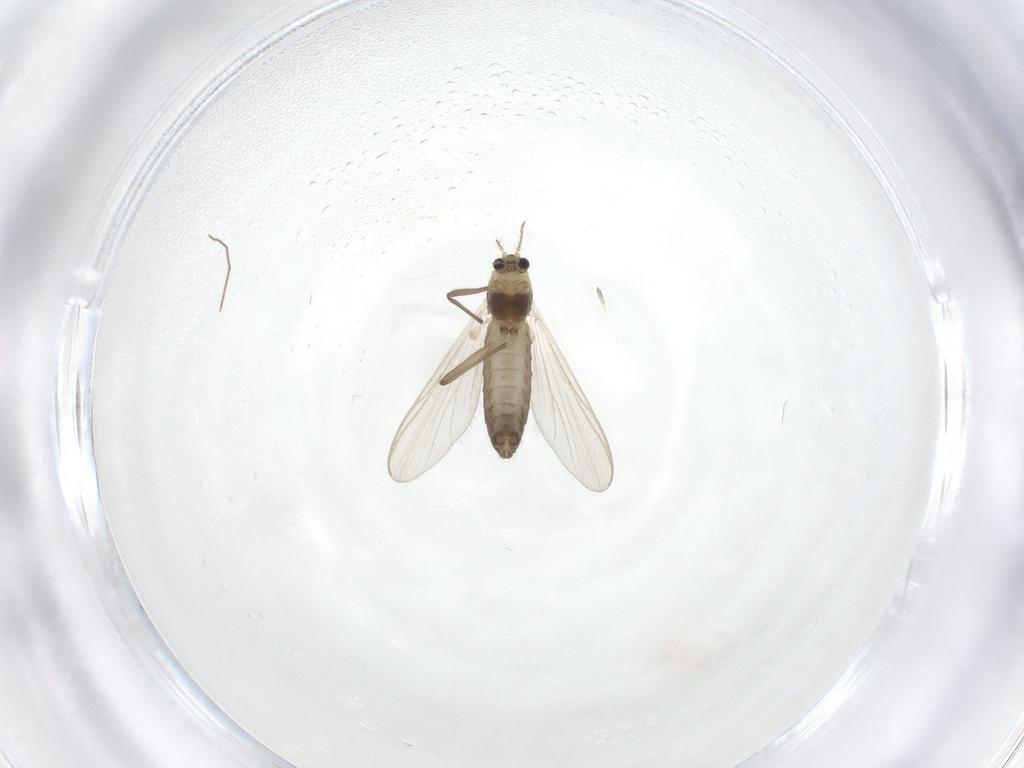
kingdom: Animalia
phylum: Arthropoda
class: Insecta
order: Diptera
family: Chironomidae
